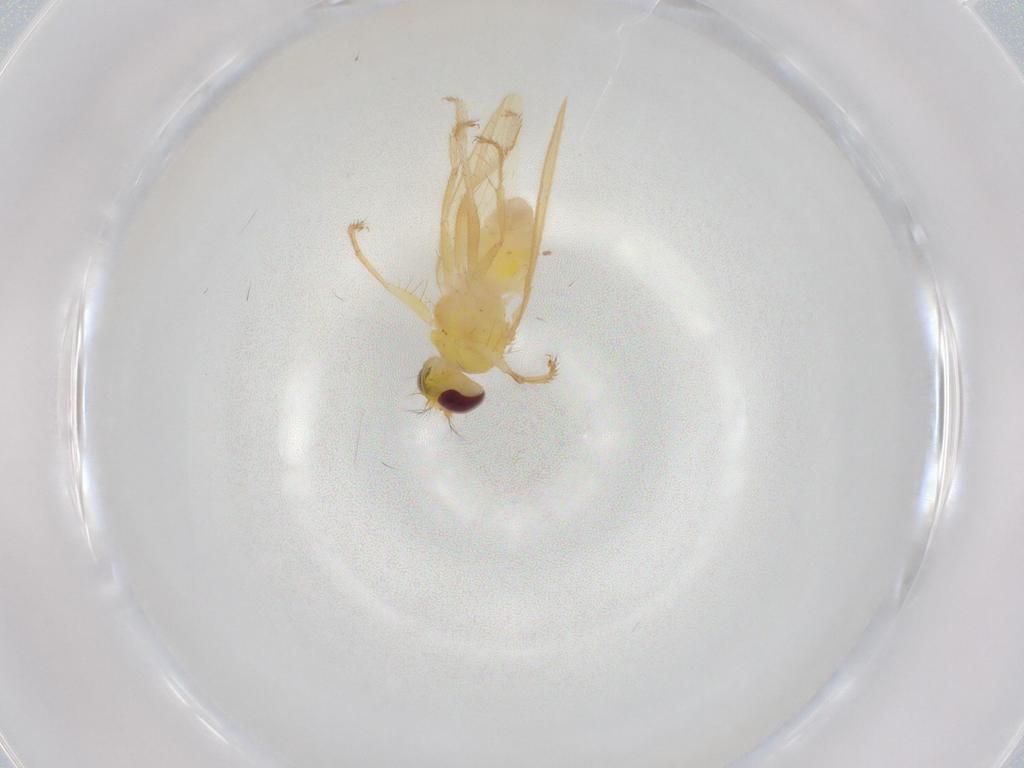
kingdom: Animalia
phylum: Arthropoda
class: Insecta
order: Diptera
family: Periscelididae
